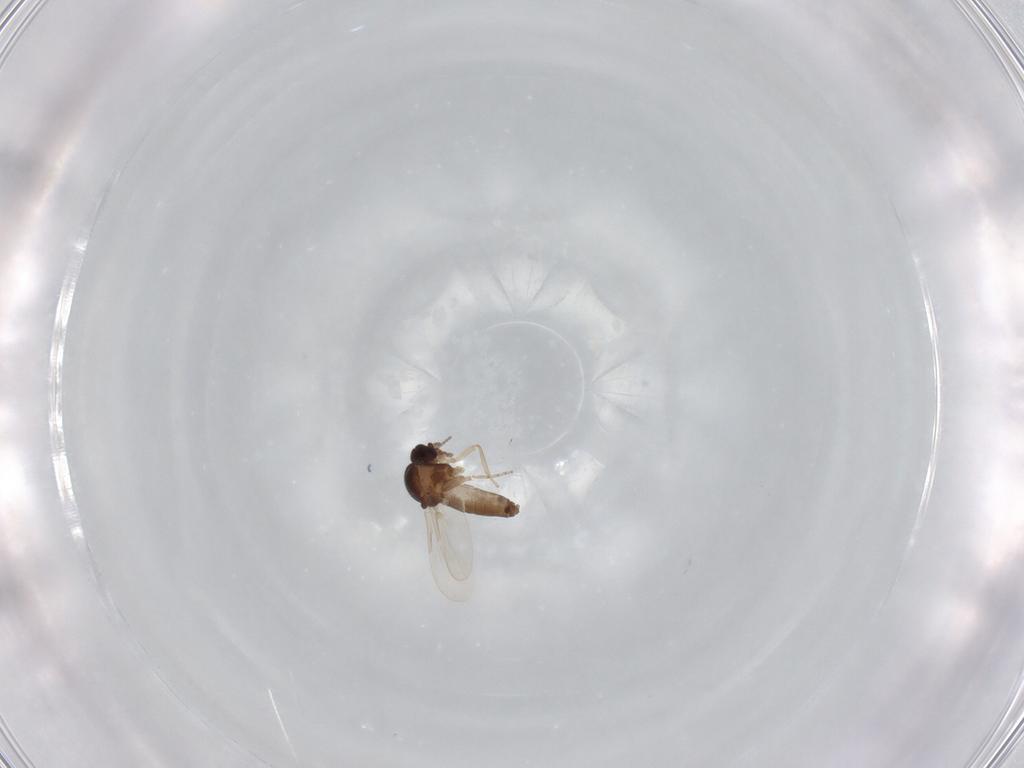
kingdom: Animalia
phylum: Arthropoda
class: Insecta
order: Diptera
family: Ceratopogonidae
